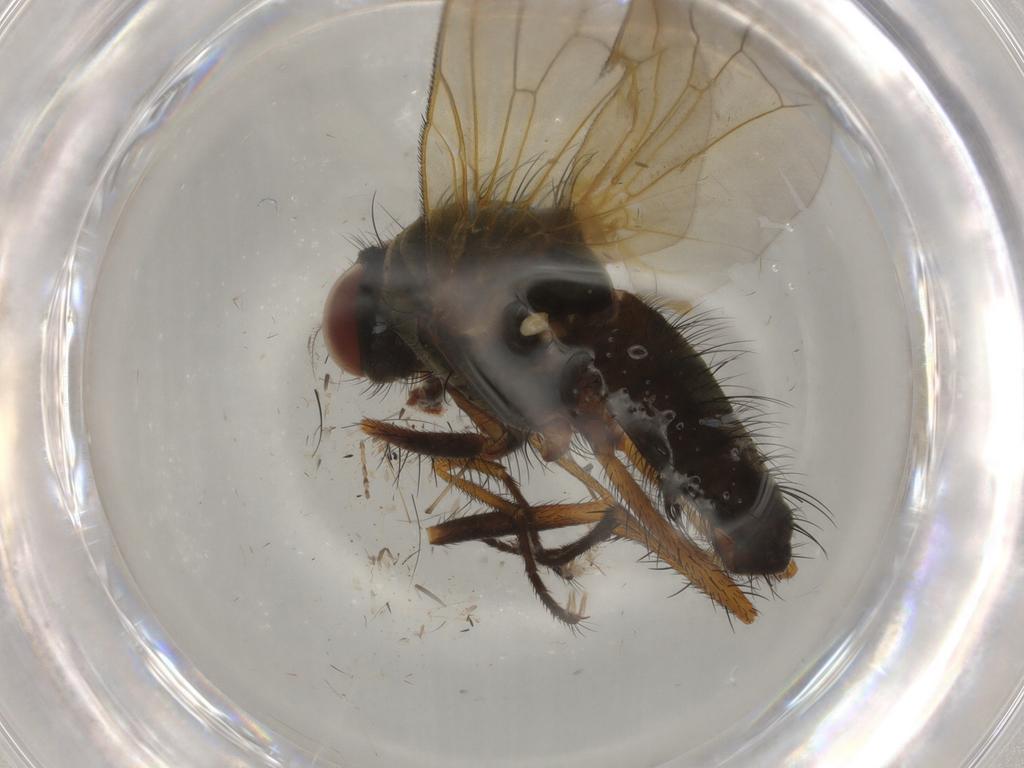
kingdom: Animalia
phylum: Arthropoda
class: Insecta
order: Diptera
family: Anthomyiidae
